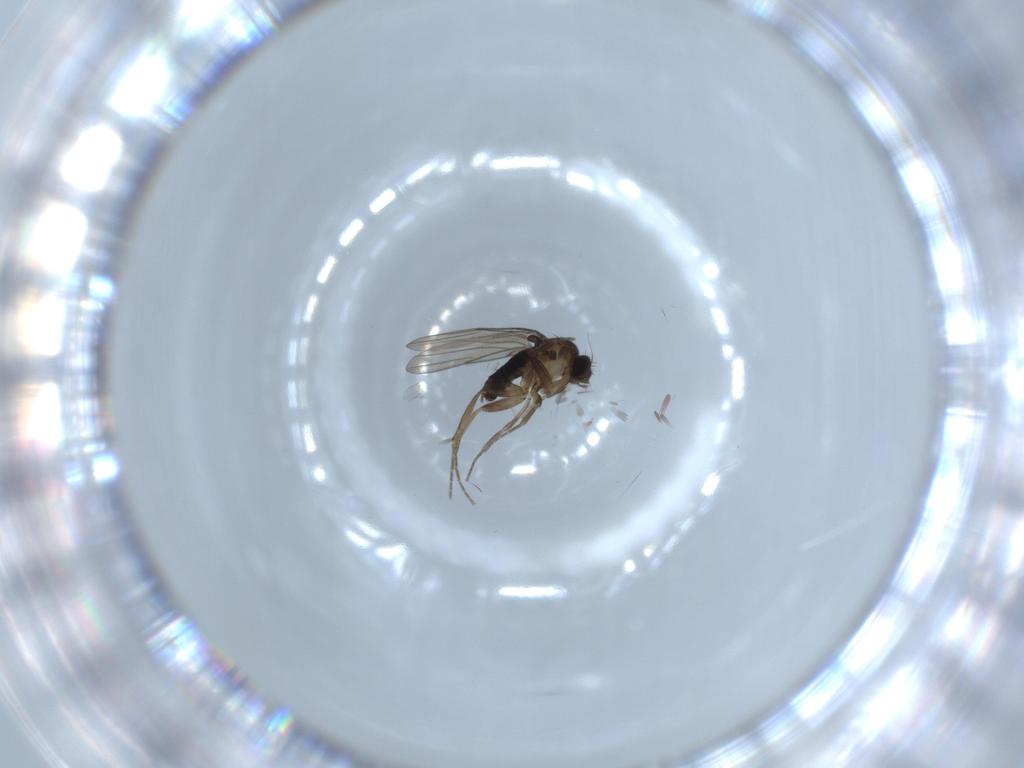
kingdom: Animalia
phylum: Arthropoda
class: Insecta
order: Diptera
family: Phoridae
